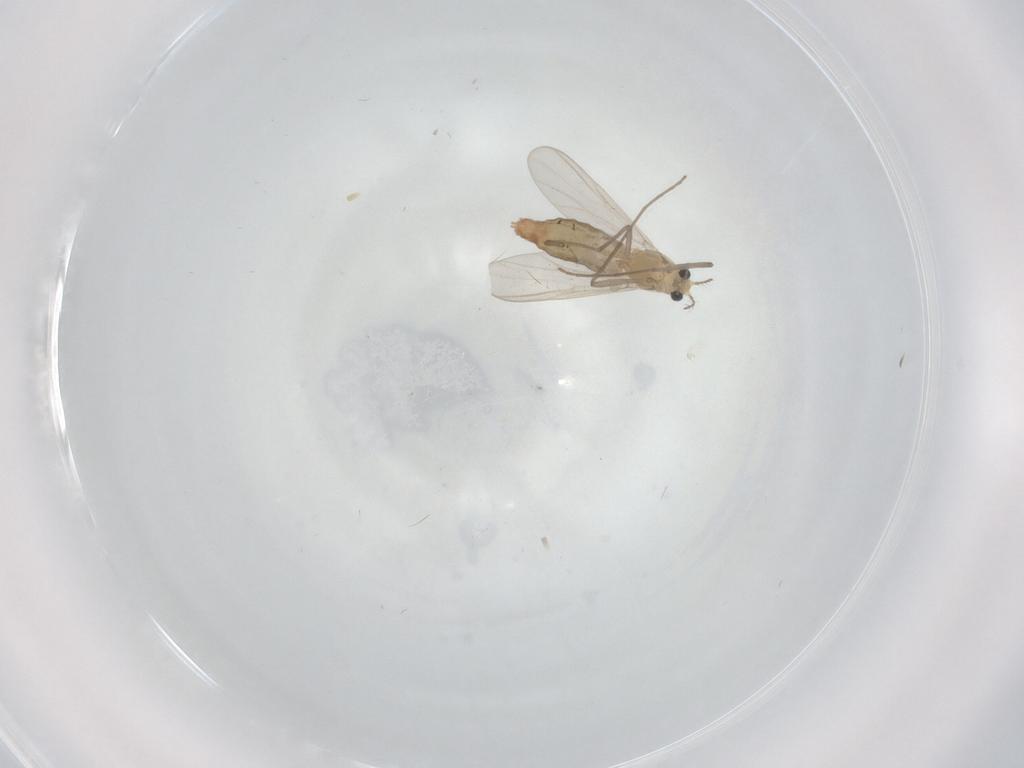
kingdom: Animalia
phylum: Arthropoda
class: Insecta
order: Diptera
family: Chironomidae
